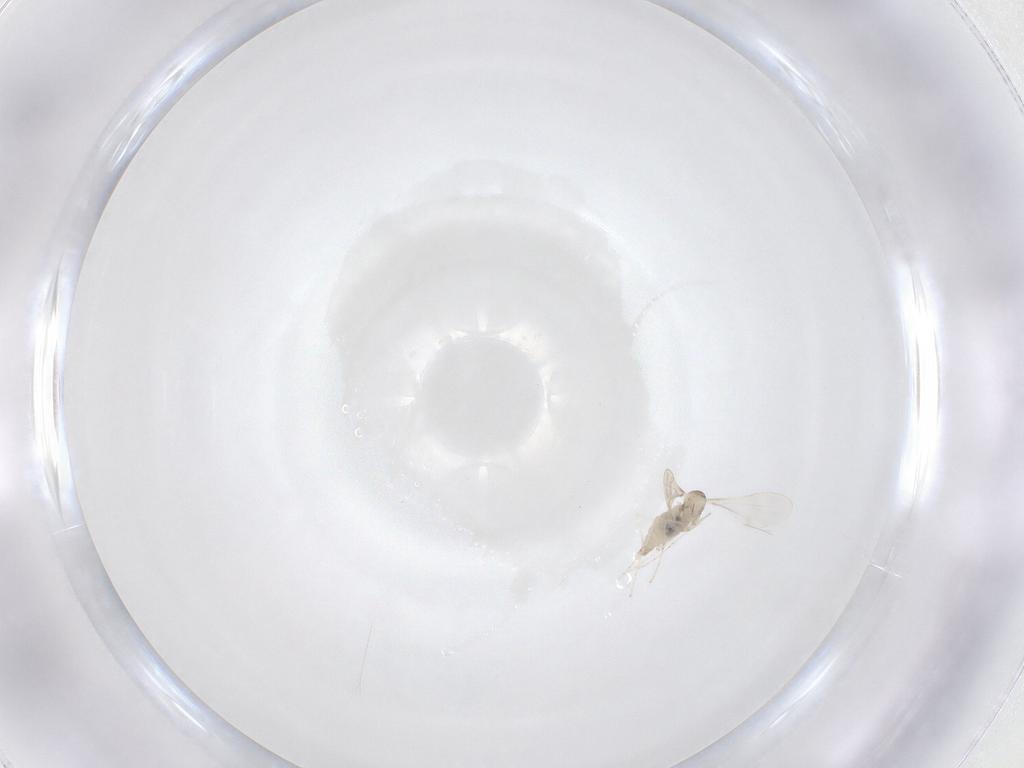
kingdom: Animalia
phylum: Arthropoda
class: Insecta
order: Diptera
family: Cecidomyiidae
